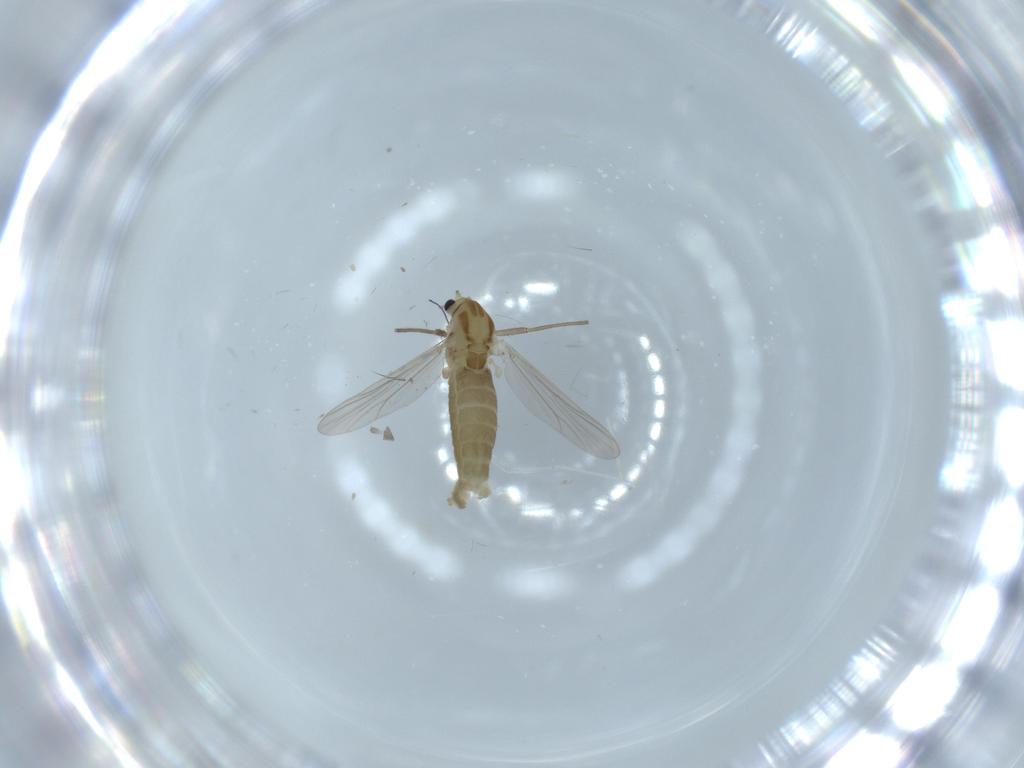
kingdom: Animalia
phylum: Arthropoda
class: Insecta
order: Diptera
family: Chironomidae
